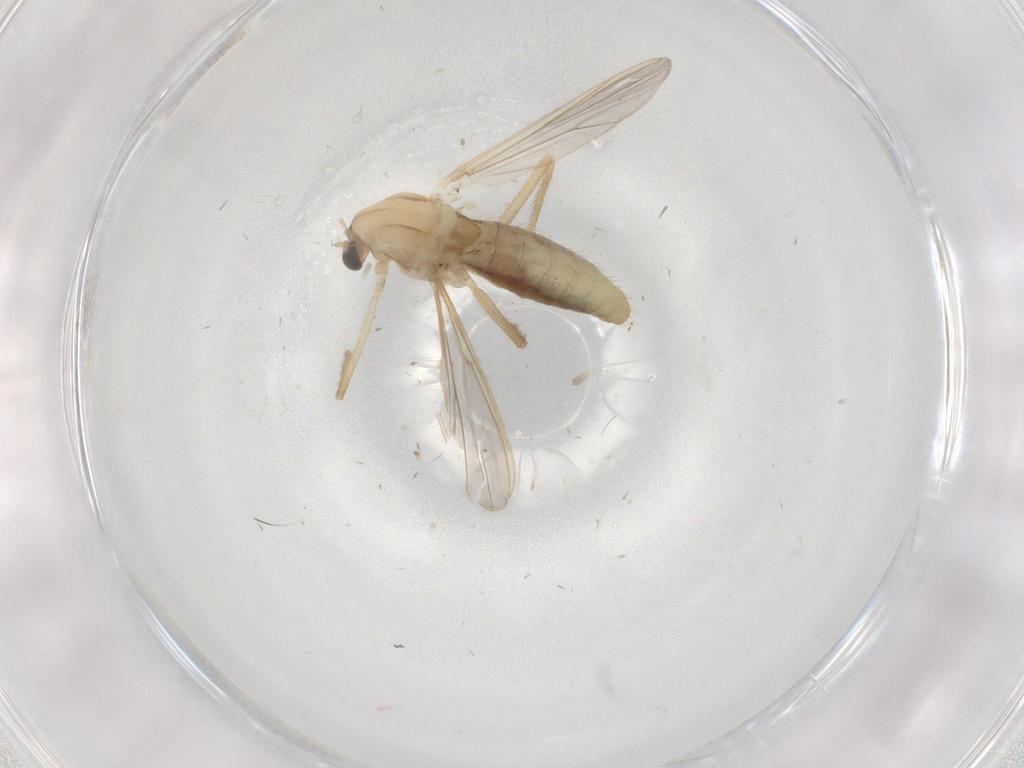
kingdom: Animalia
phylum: Arthropoda
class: Insecta
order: Diptera
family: Chironomidae
